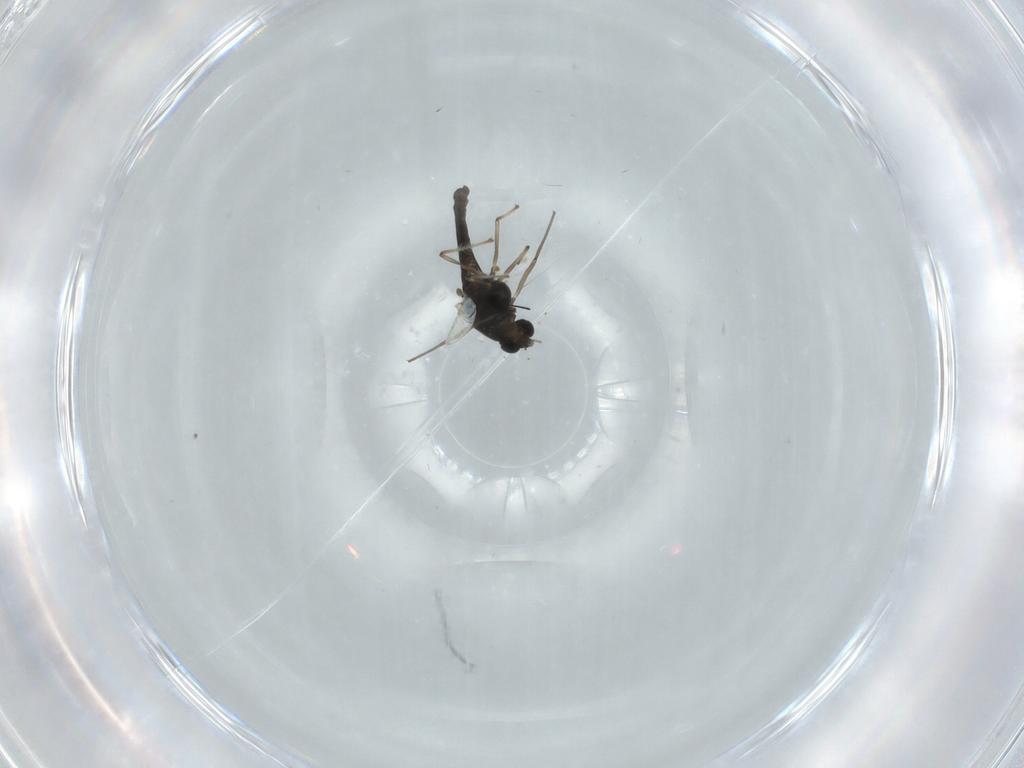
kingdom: Animalia
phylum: Arthropoda
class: Insecta
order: Diptera
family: Chironomidae
